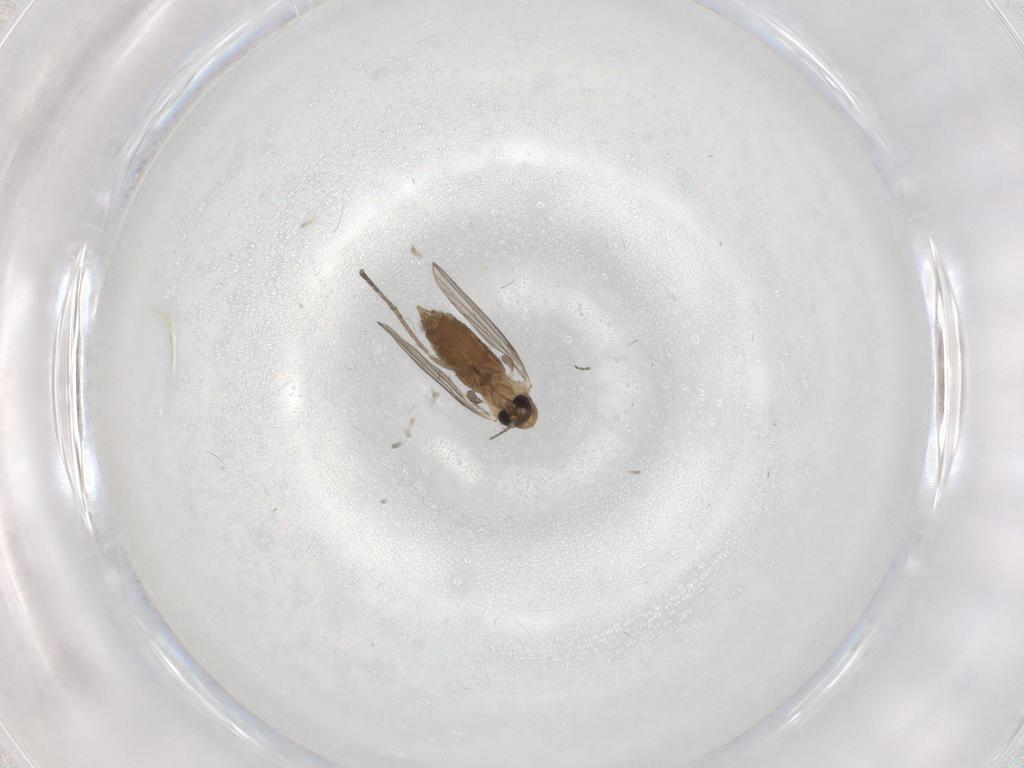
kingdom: Animalia
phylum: Arthropoda
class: Insecta
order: Diptera
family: Psychodidae
